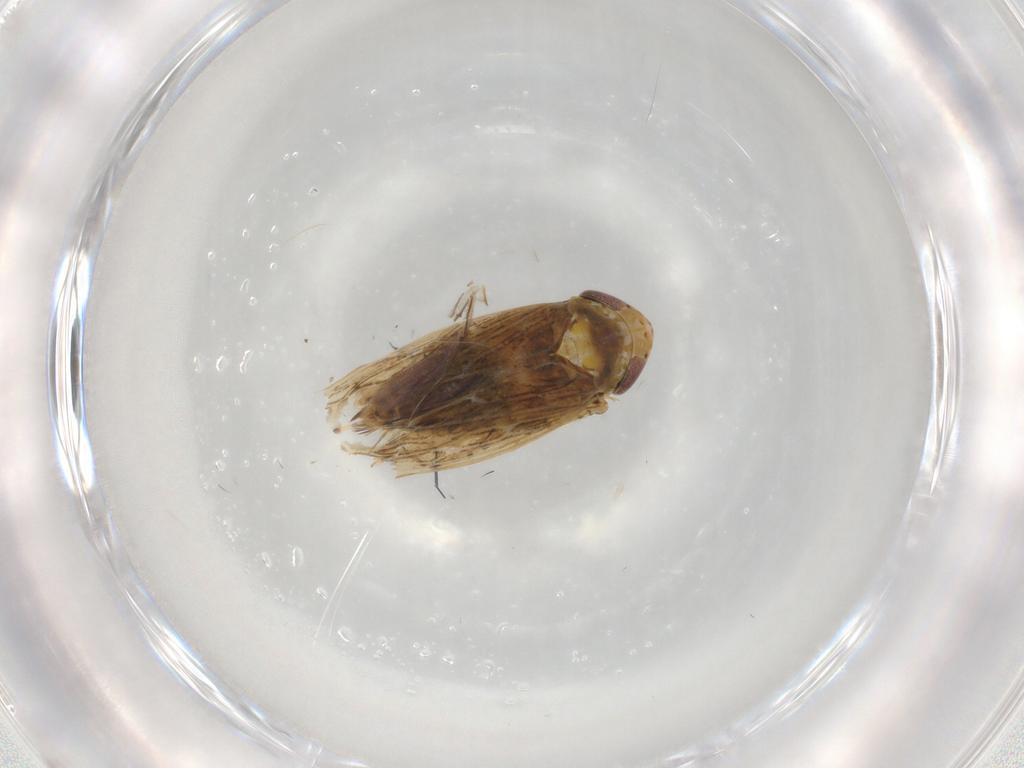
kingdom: Animalia
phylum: Arthropoda
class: Insecta
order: Hemiptera
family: Cicadellidae
